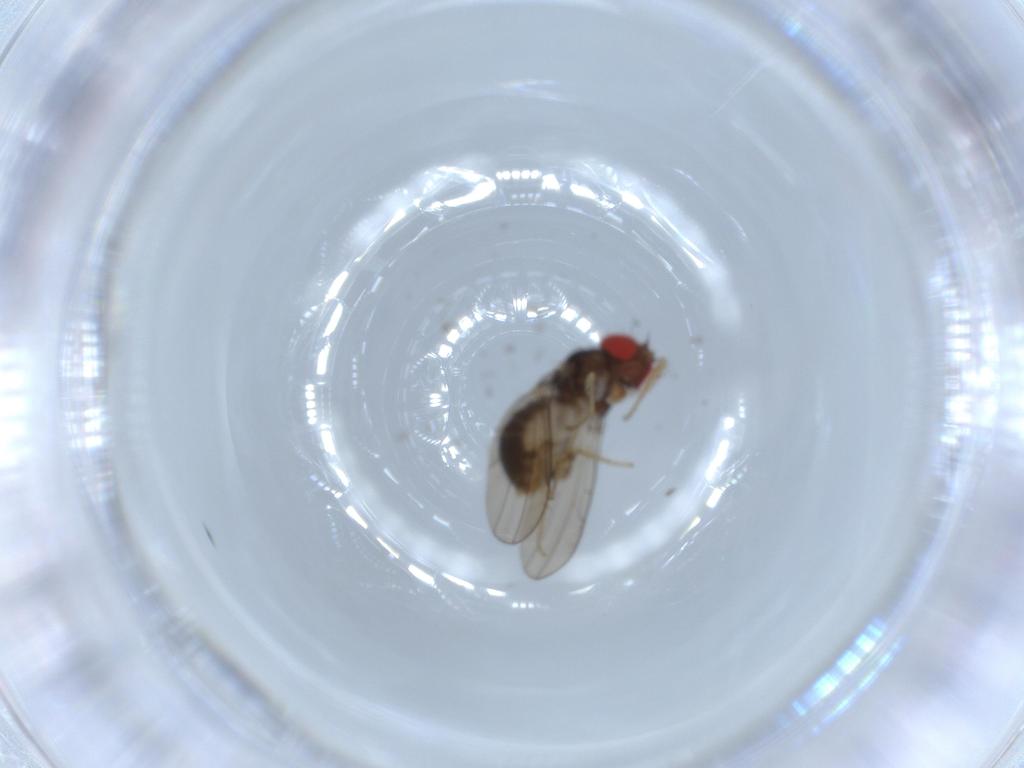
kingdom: Animalia
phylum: Arthropoda
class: Insecta
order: Diptera
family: Drosophilidae
